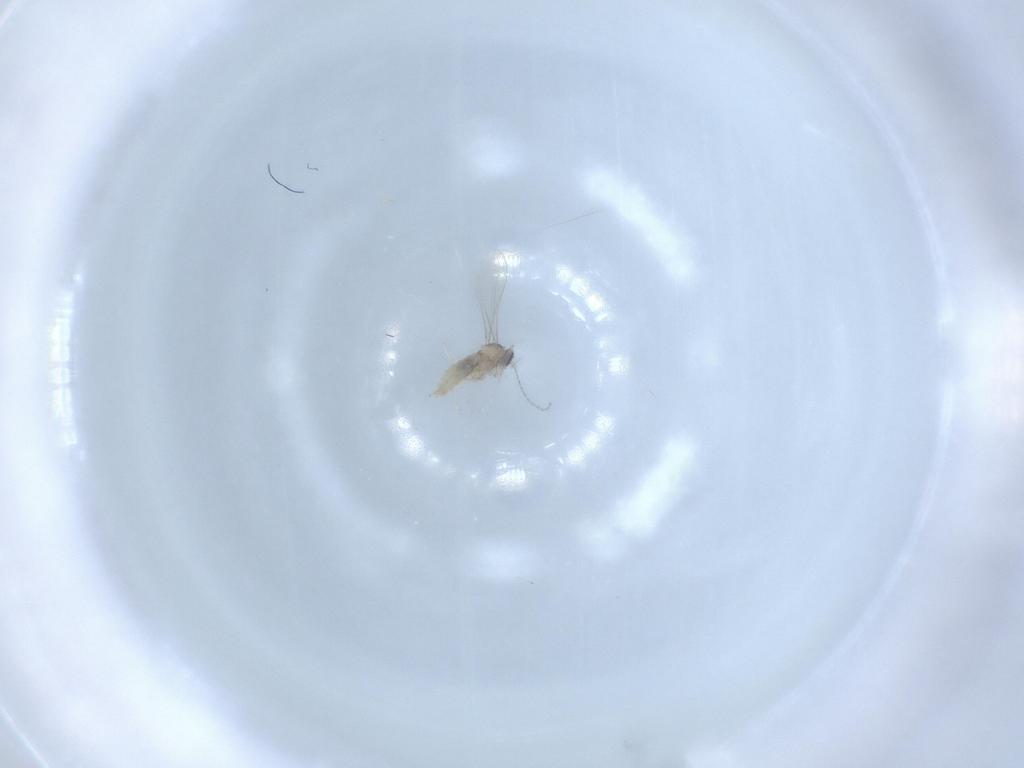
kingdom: Animalia
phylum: Arthropoda
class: Insecta
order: Diptera
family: Cecidomyiidae
